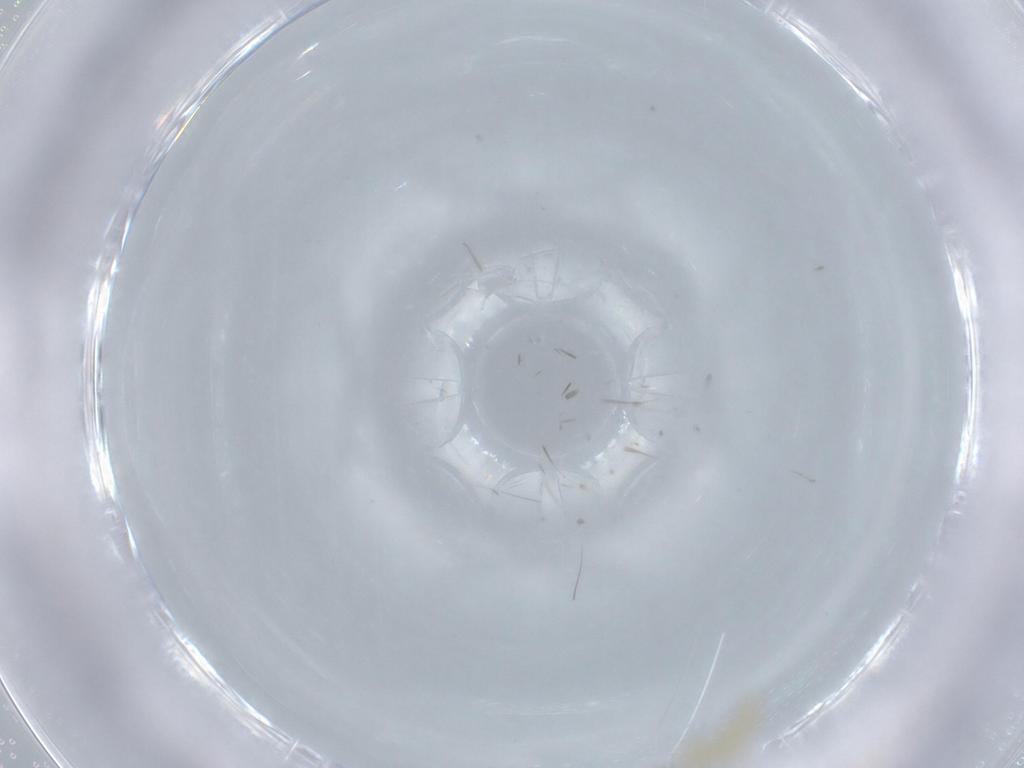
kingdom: Animalia
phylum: Arthropoda
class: Insecta
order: Diptera
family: Cecidomyiidae
